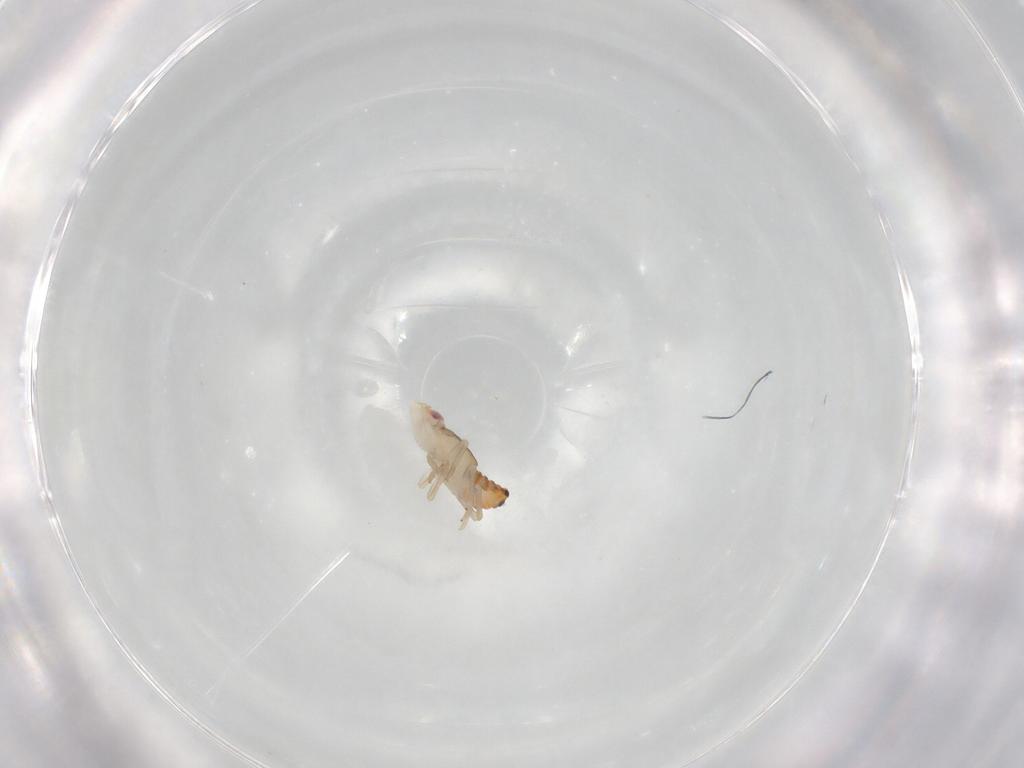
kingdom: Animalia
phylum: Arthropoda
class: Insecta
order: Hemiptera
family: Tropiduchidae
